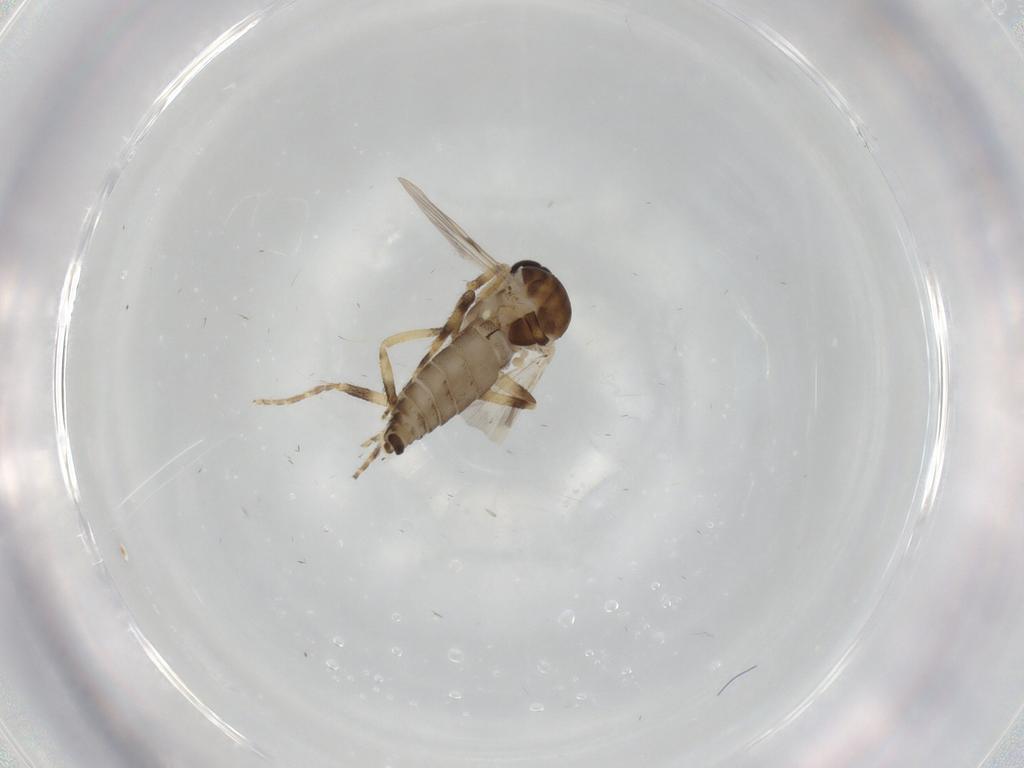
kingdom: Animalia
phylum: Arthropoda
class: Insecta
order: Diptera
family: Ceratopogonidae
